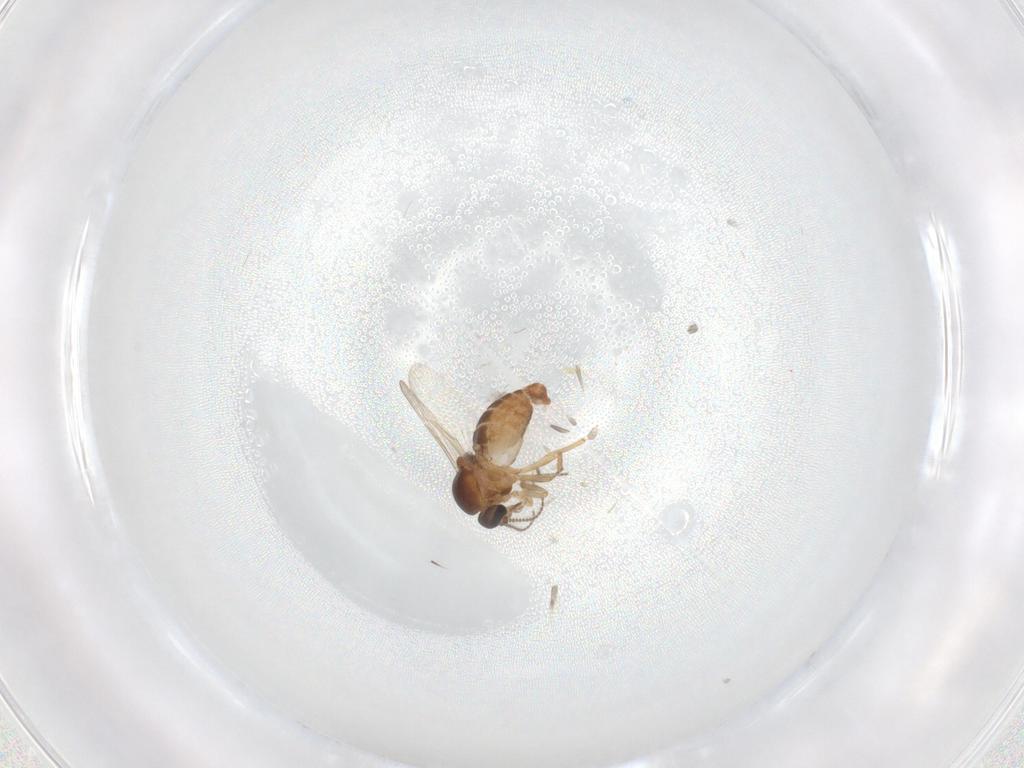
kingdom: Animalia
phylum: Arthropoda
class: Insecta
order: Diptera
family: Ceratopogonidae
